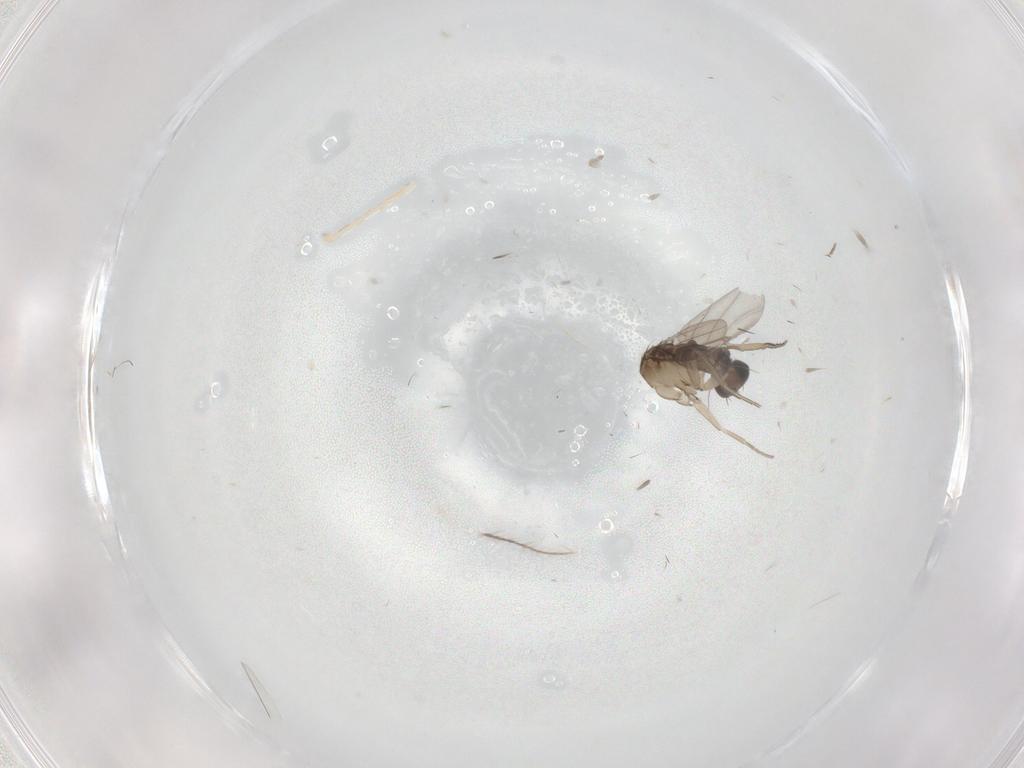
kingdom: Animalia
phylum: Arthropoda
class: Insecta
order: Diptera
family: Phoridae
